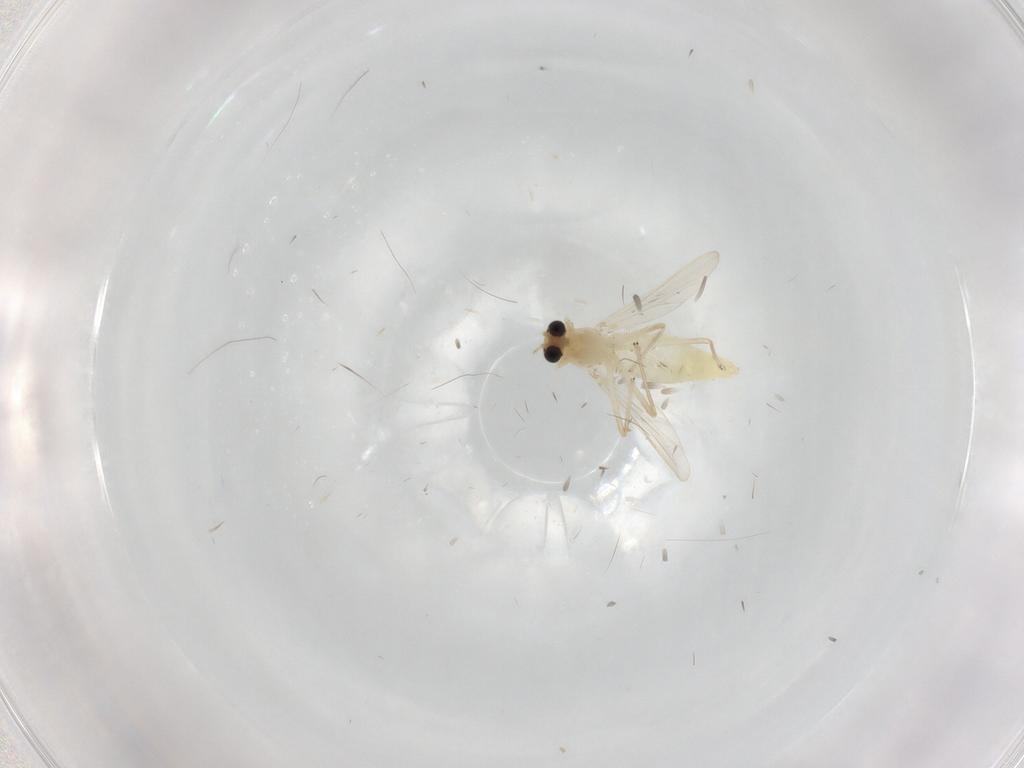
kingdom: Animalia
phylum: Arthropoda
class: Insecta
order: Diptera
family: Chironomidae
